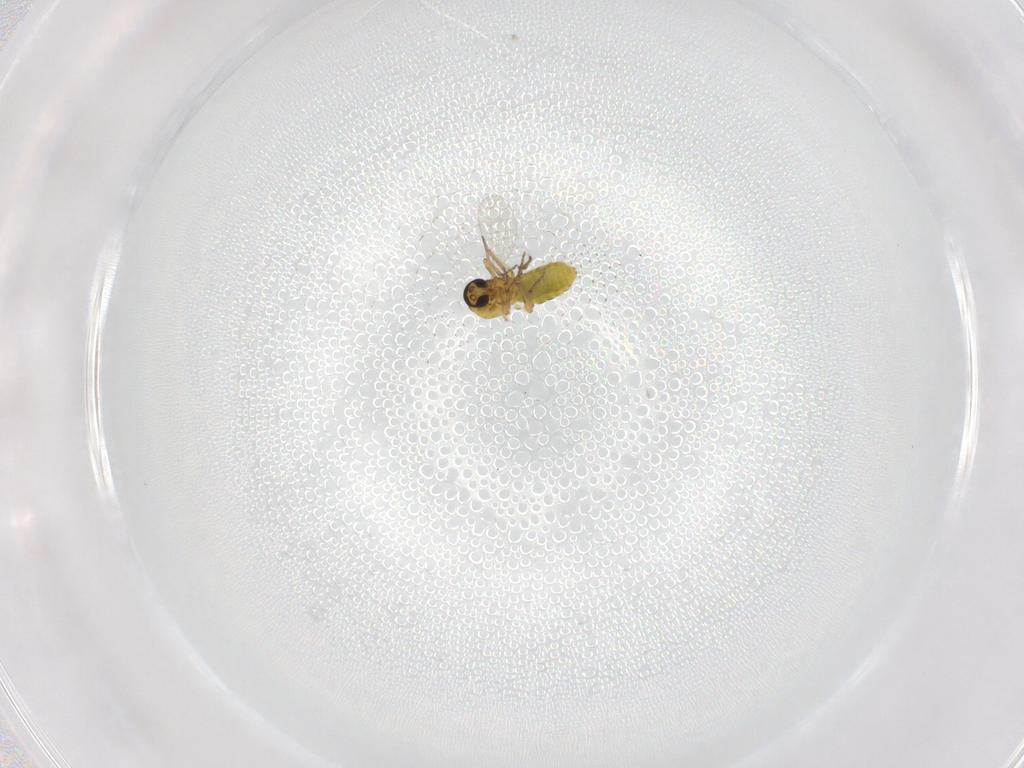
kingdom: Animalia
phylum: Arthropoda
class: Insecta
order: Diptera
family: Ceratopogonidae
